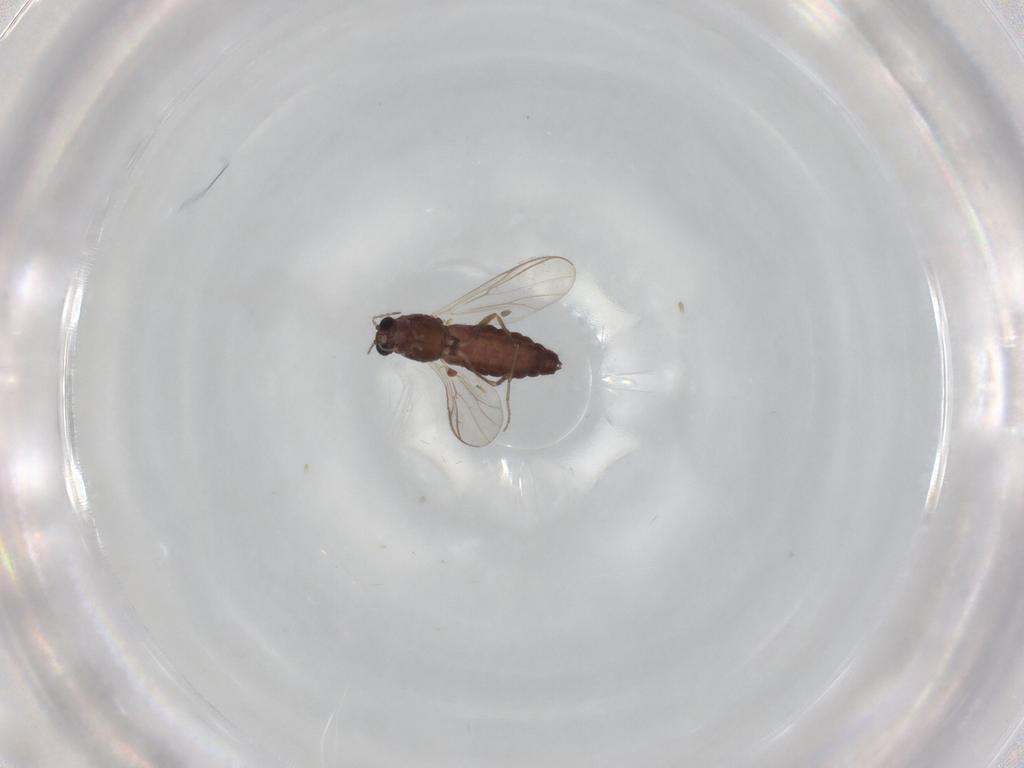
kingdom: Animalia
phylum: Arthropoda
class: Insecta
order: Diptera
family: Chironomidae
